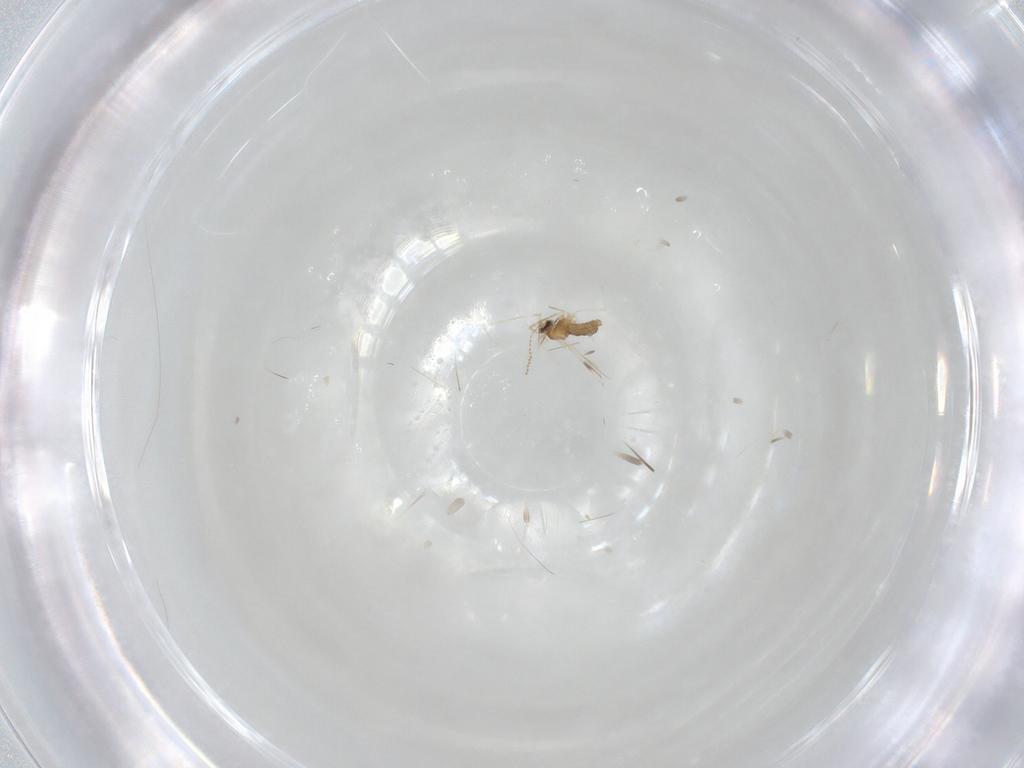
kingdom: Animalia
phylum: Arthropoda
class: Insecta
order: Diptera
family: Cecidomyiidae
